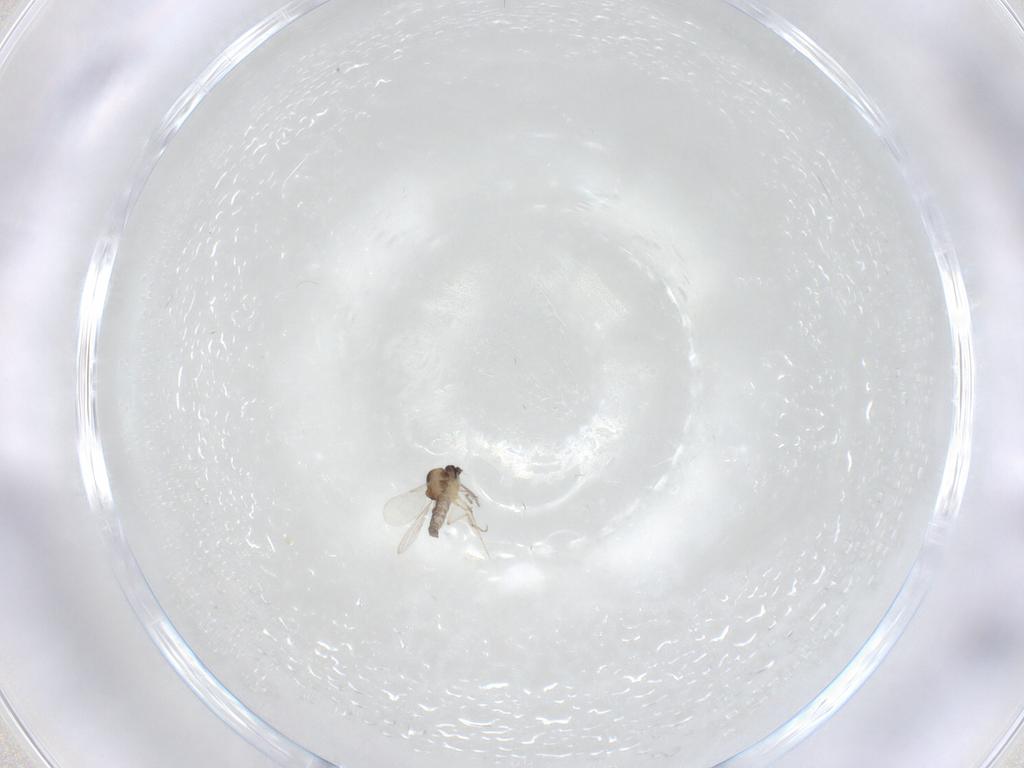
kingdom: Animalia
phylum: Arthropoda
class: Insecta
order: Diptera
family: Ceratopogonidae
